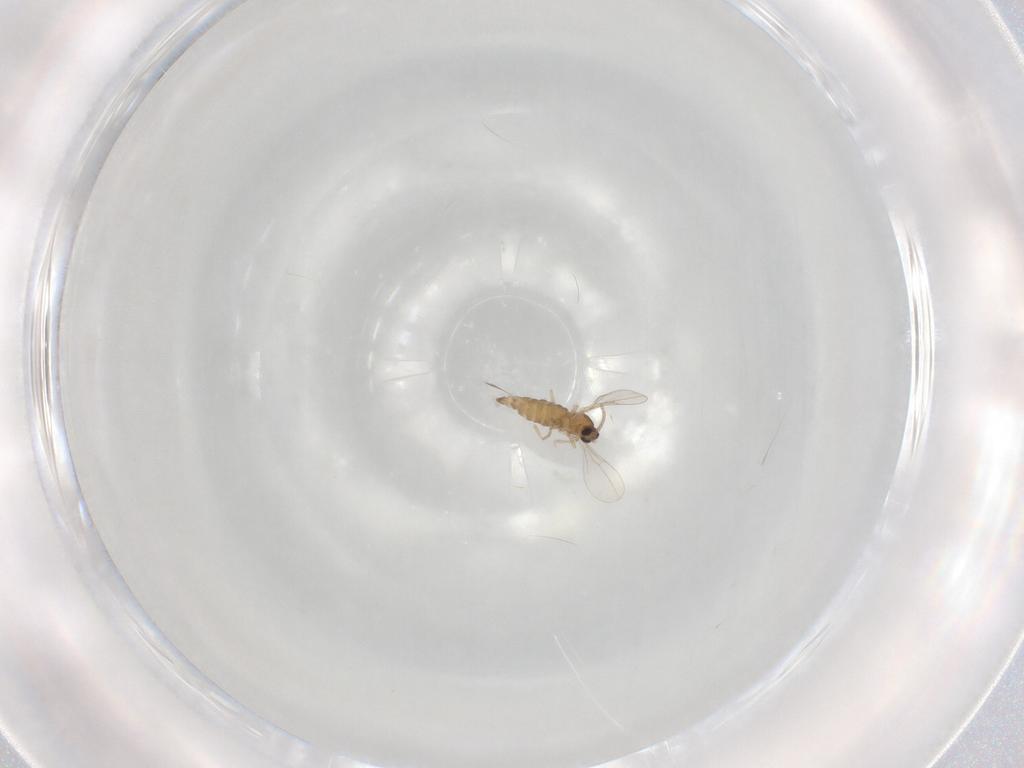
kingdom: Animalia
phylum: Arthropoda
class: Insecta
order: Diptera
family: Cecidomyiidae
